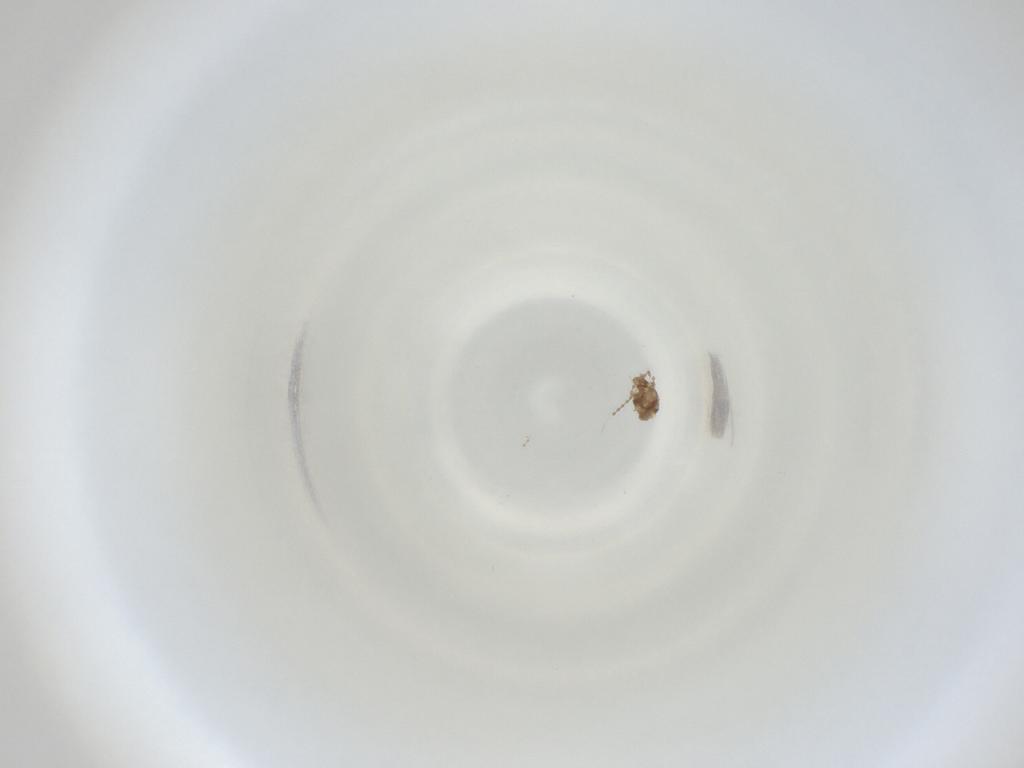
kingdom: Animalia
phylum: Arthropoda
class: Insecta
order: Diptera
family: Cecidomyiidae
